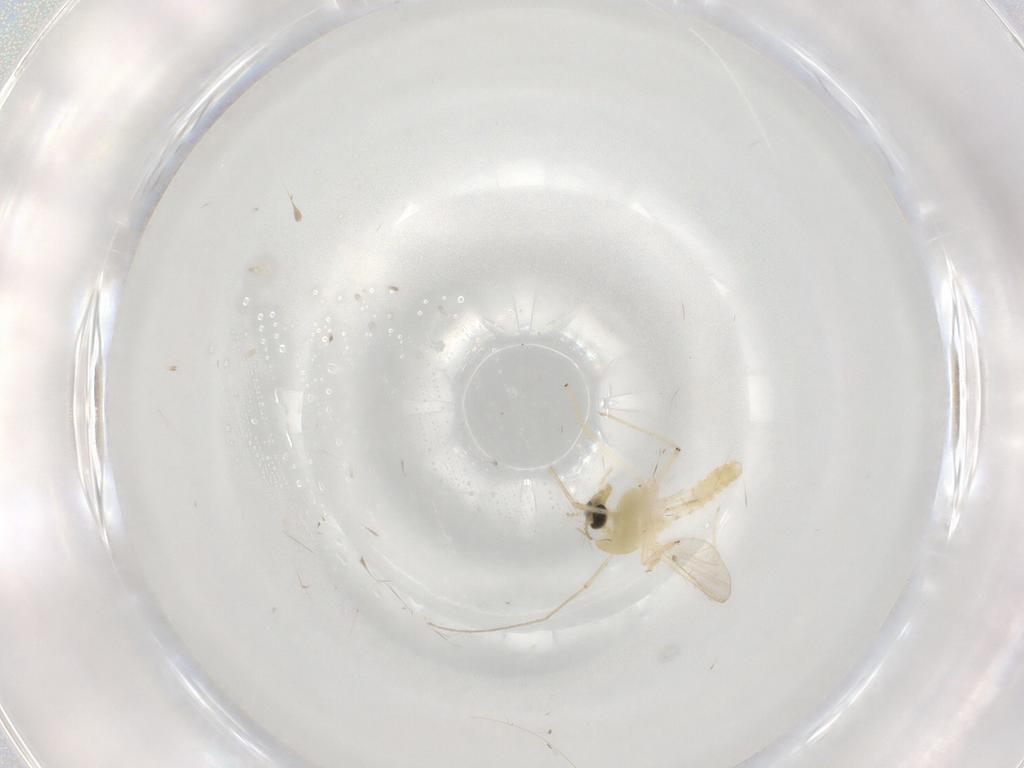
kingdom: Animalia
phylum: Arthropoda
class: Insecta
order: Diptera
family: Chironomidae
